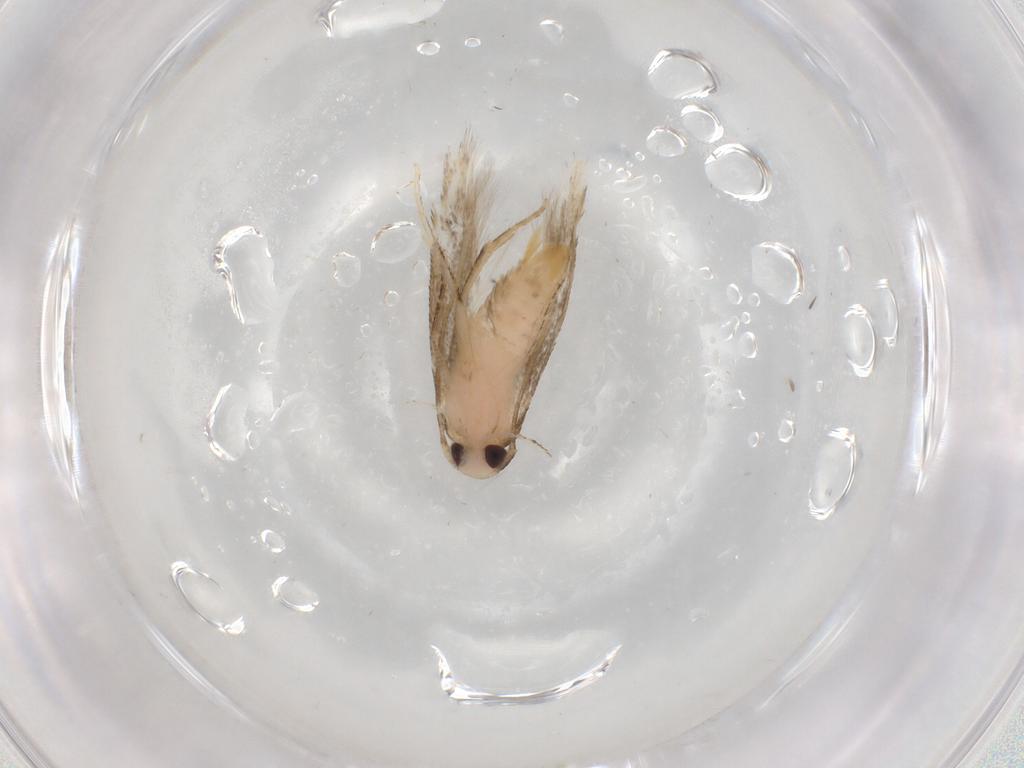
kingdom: Animalia
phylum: Arthropoda
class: Insecta
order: Lepidoptera
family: Cosmopterigidae
